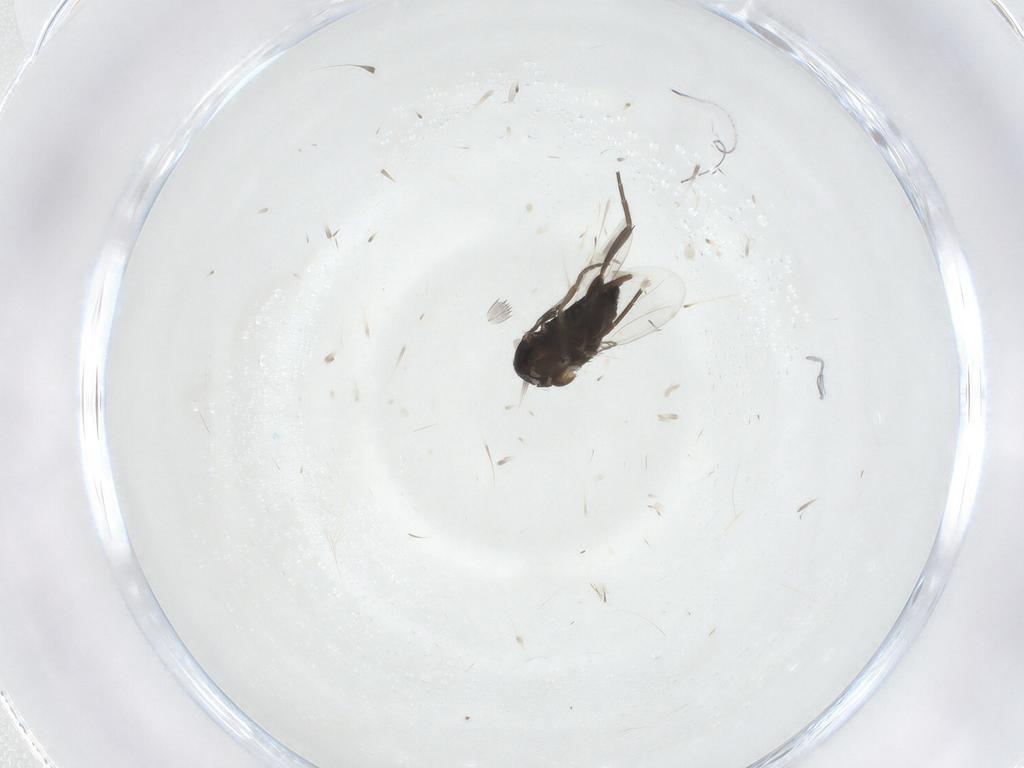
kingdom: Animalia
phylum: Arthropoda
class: Insecta
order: Diptera
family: Phoridae
